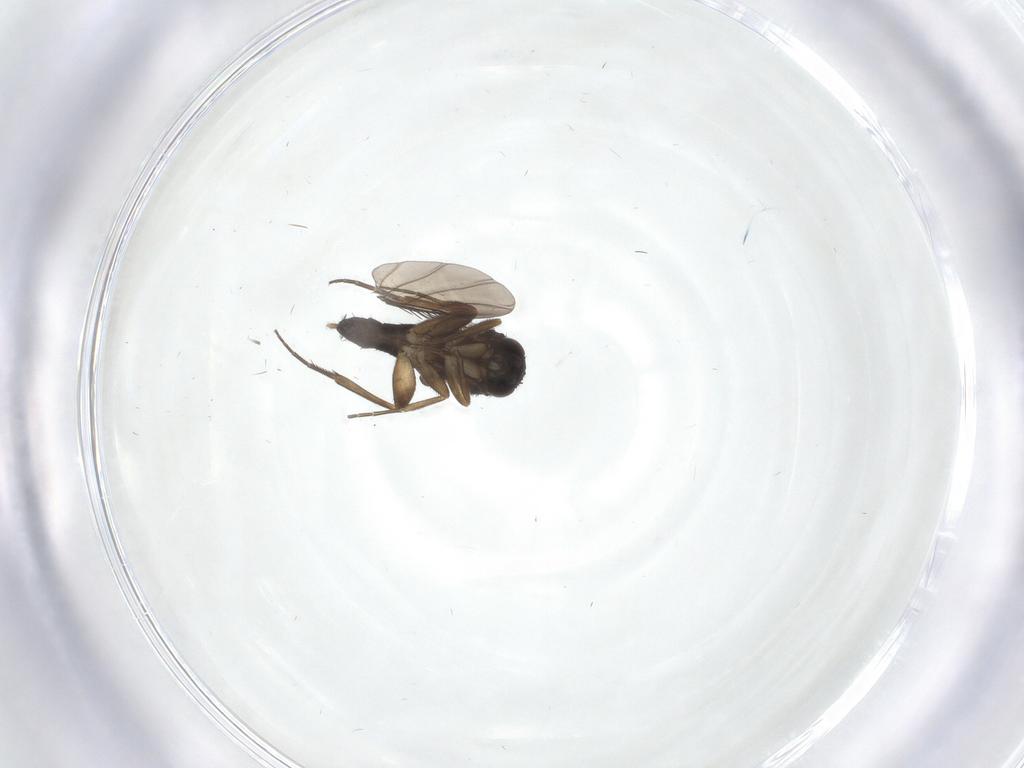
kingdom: Animalia
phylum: Arthropoda
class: Insecta
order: Diptera
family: Phoridae
